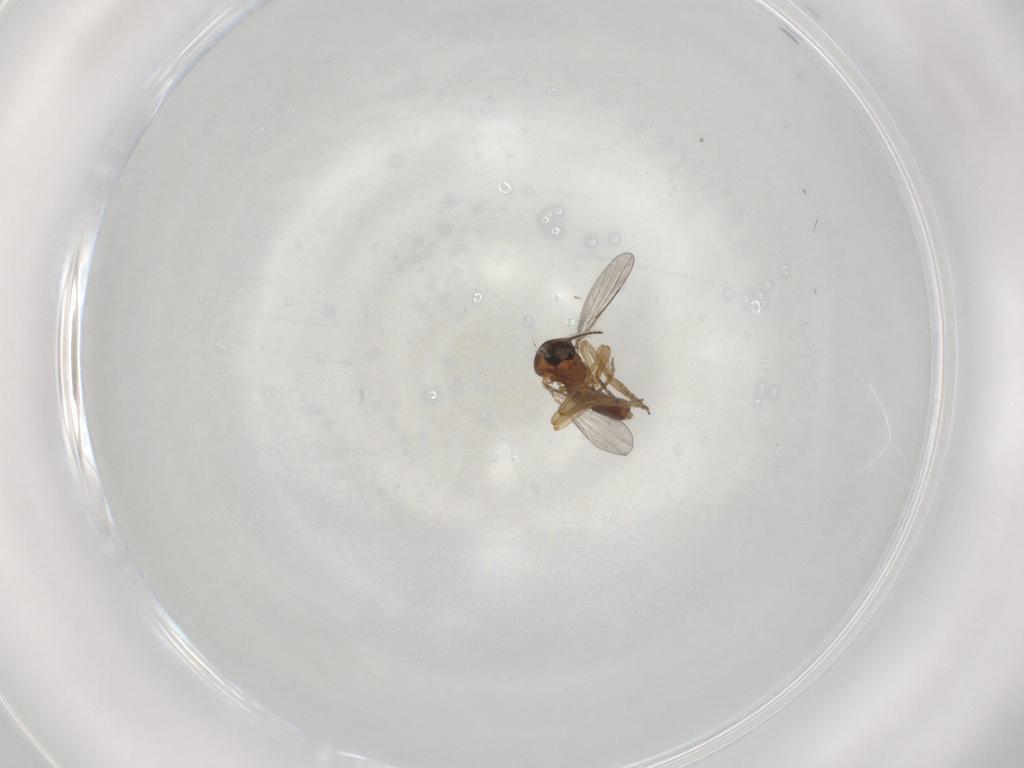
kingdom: Animalia
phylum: Arthropoda
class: Insecta
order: Diptera
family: Ceratopogonidae
